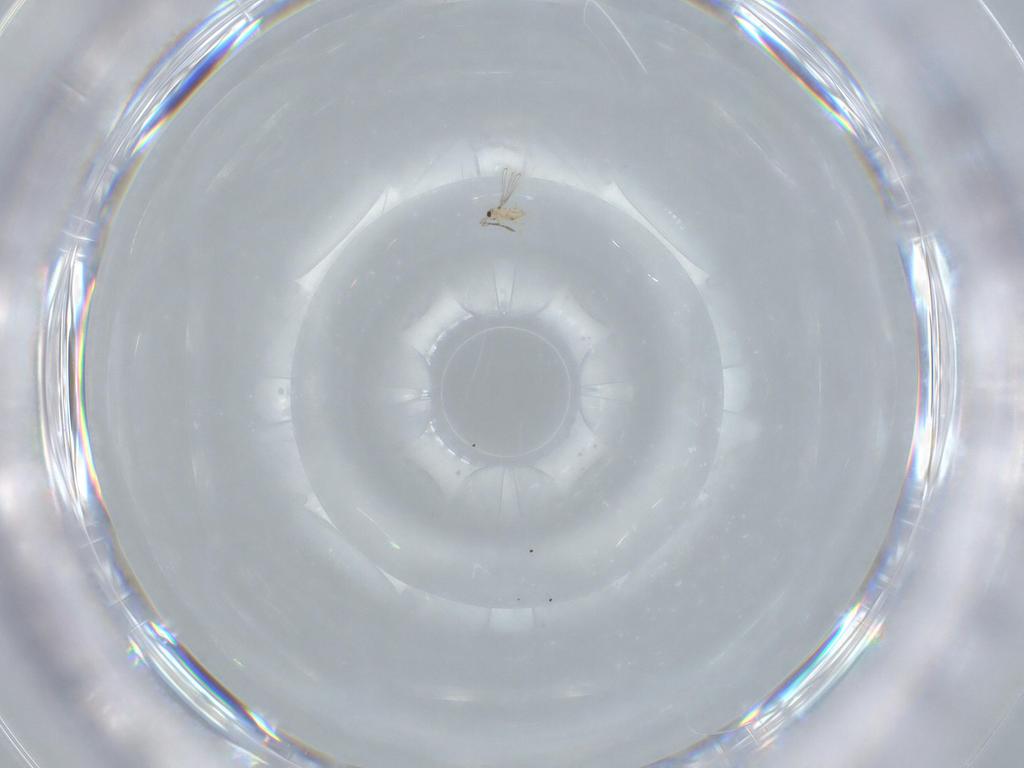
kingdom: Animalia
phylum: Arthropoda
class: Insecta
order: Hymenoptera
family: Mymaridae
